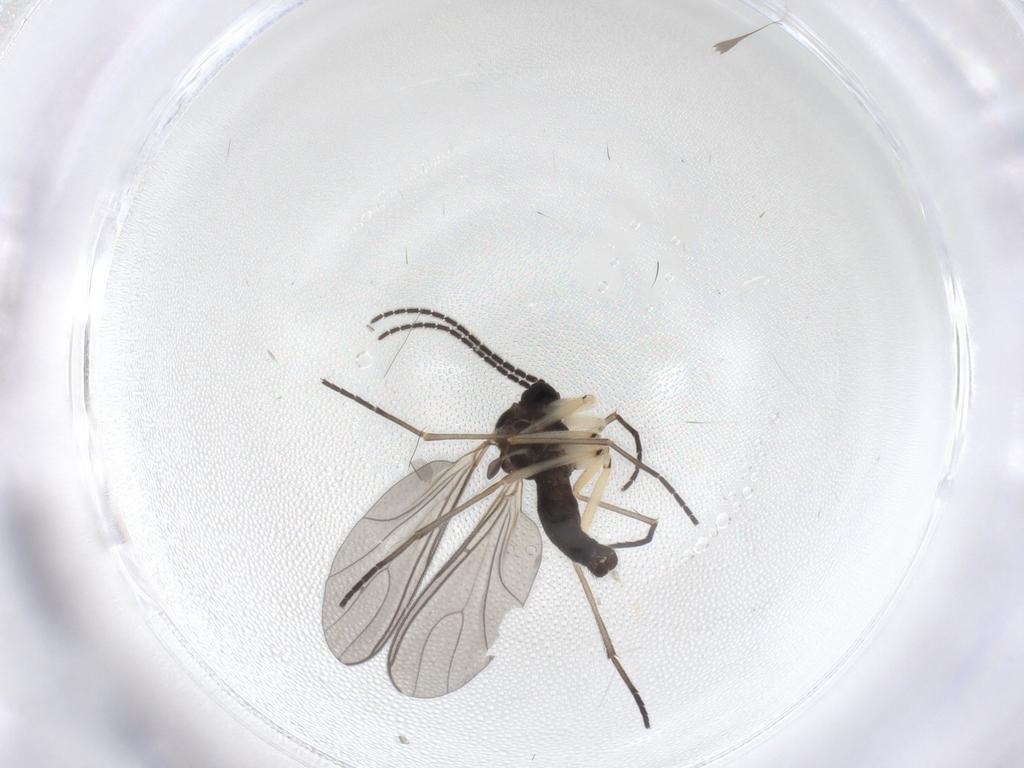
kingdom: Animalia
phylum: Arthropoda
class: Insecta
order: Diptera
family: Sciaridae
